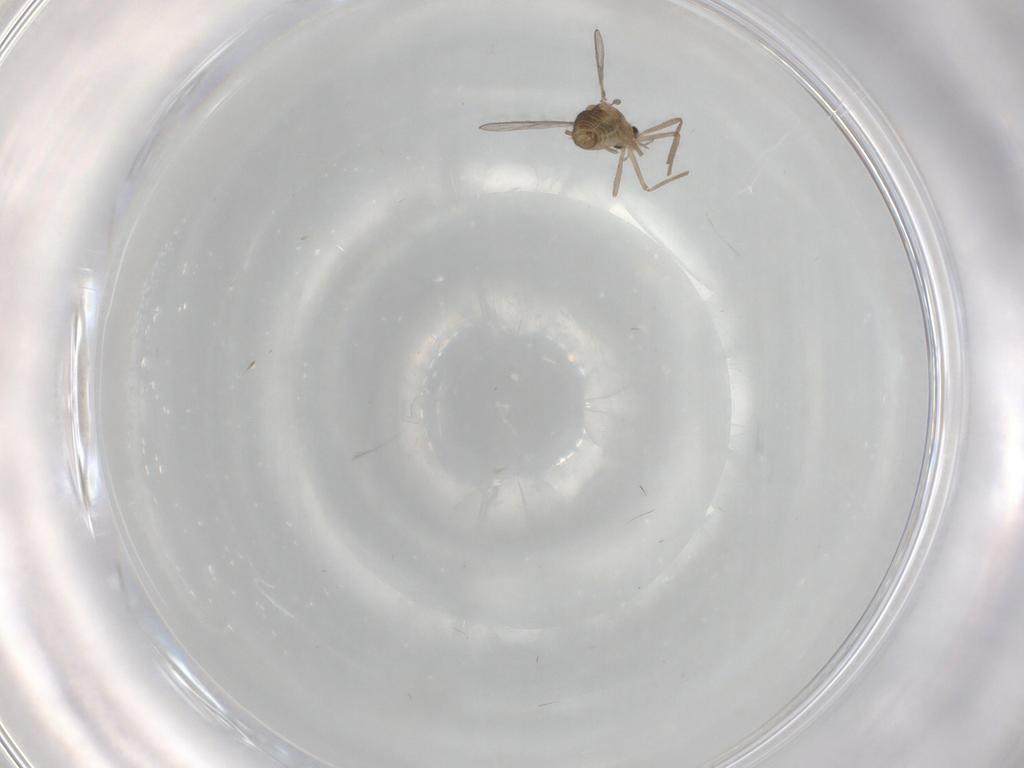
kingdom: Animalia
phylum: Arthropoda
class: Insecta
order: Diptera
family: Chironomidae
